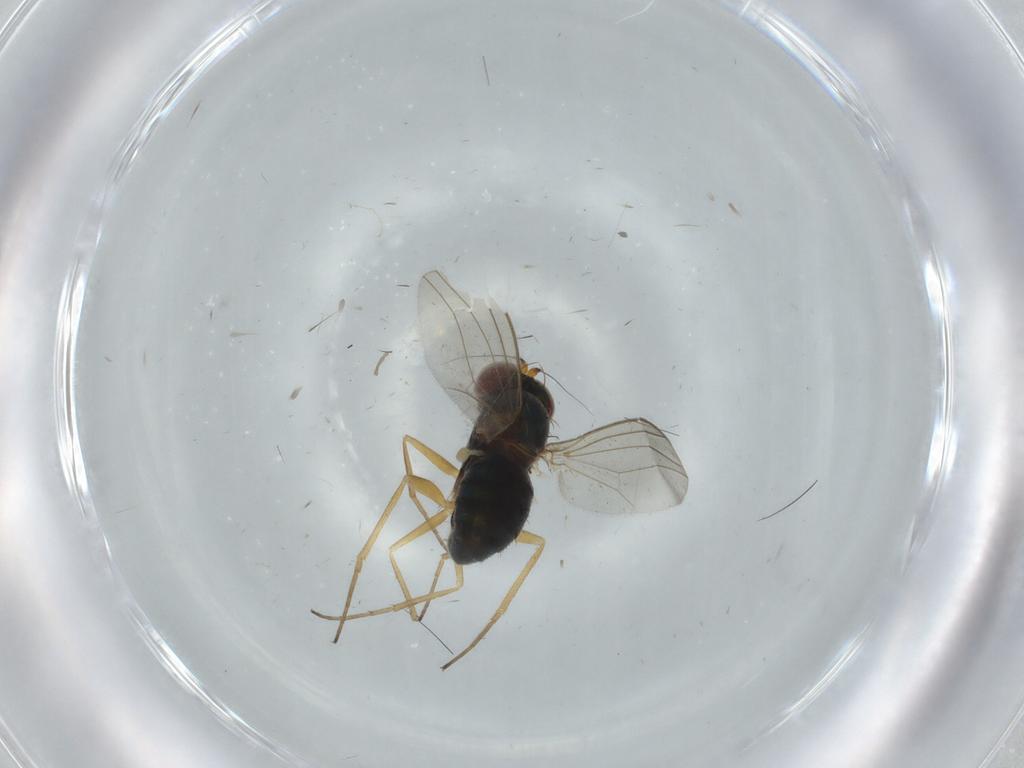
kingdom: Animalia
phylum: Arthropoda
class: Insecta
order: Diptera
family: Dolichopodidae
